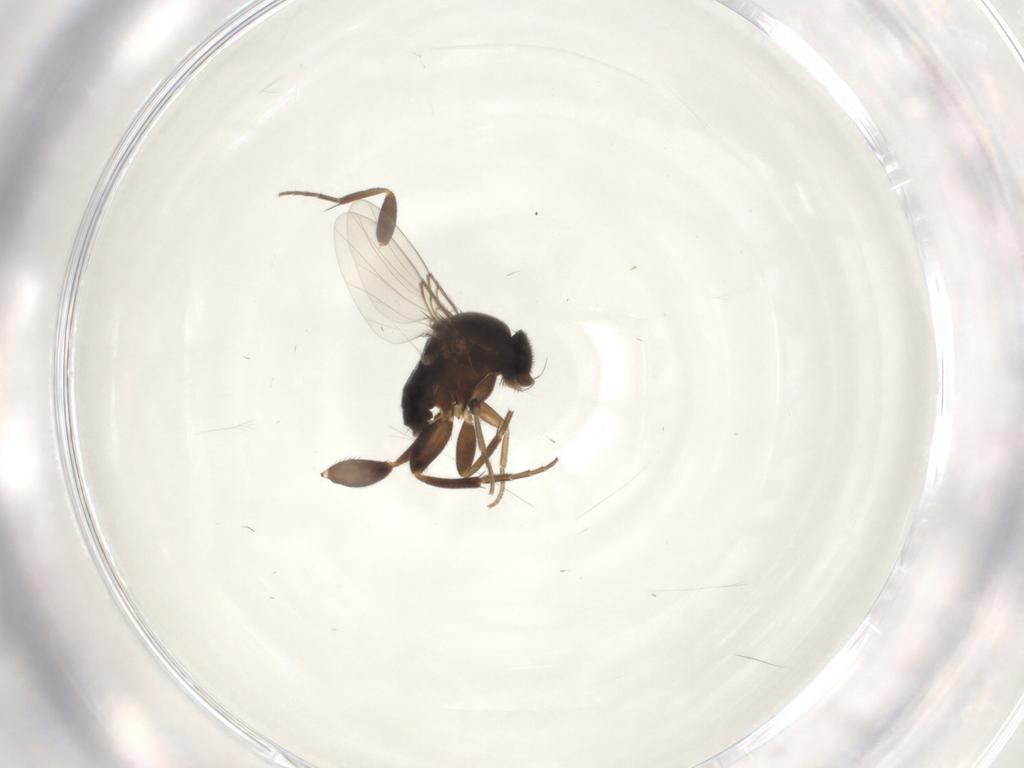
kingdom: Animalia
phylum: Arthropoda
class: Insecta
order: Diptera
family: Phoridae
